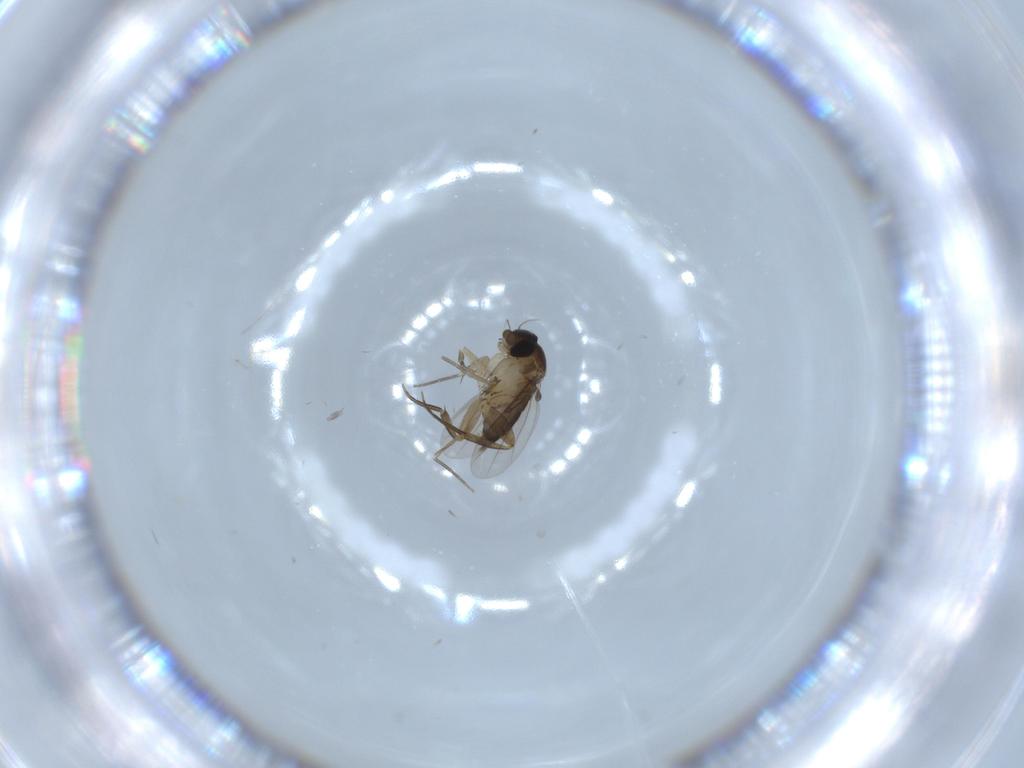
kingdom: Animalia
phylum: Arthropoda
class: Insecta
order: Diptera
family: Phoridae
